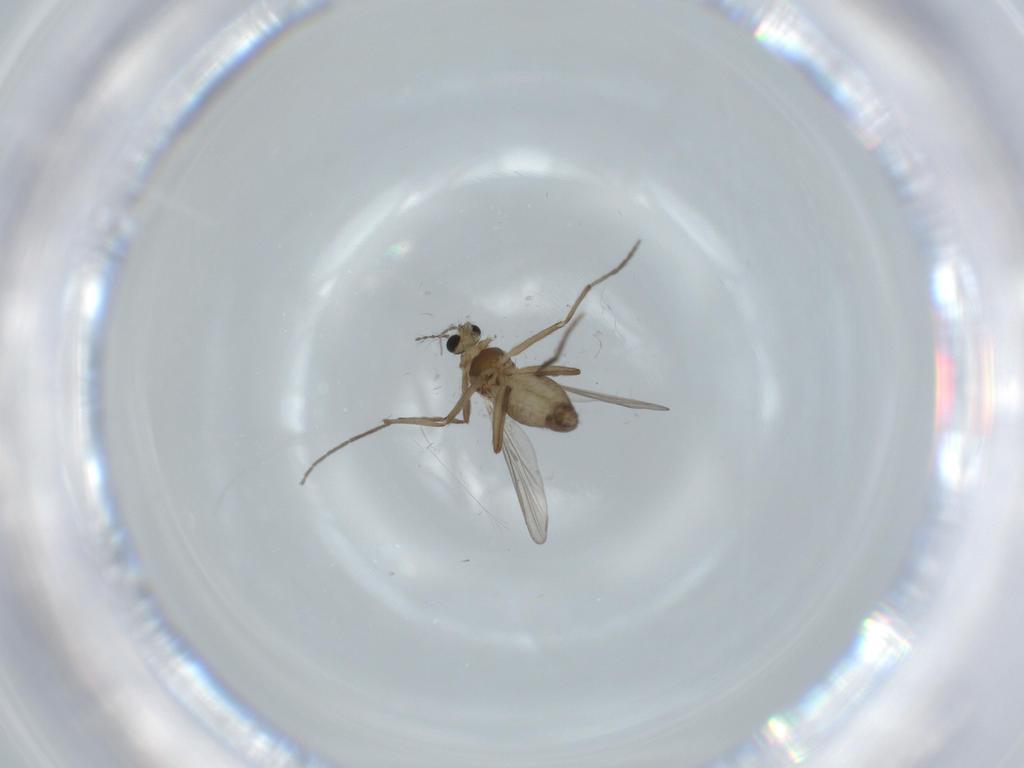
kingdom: Animalia
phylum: Arthropoda
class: Insecta
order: Diptera
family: Chironomidae
